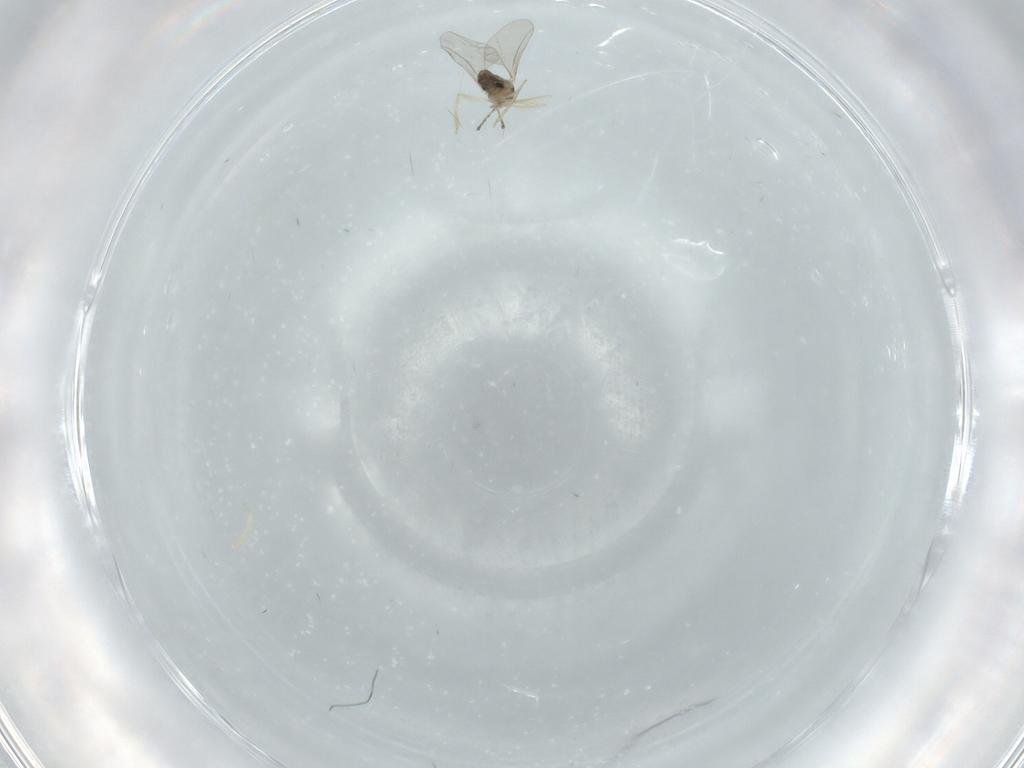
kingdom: Animalia
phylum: Arthropoda
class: Insecta
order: Diptera
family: Cecidomyiidae
